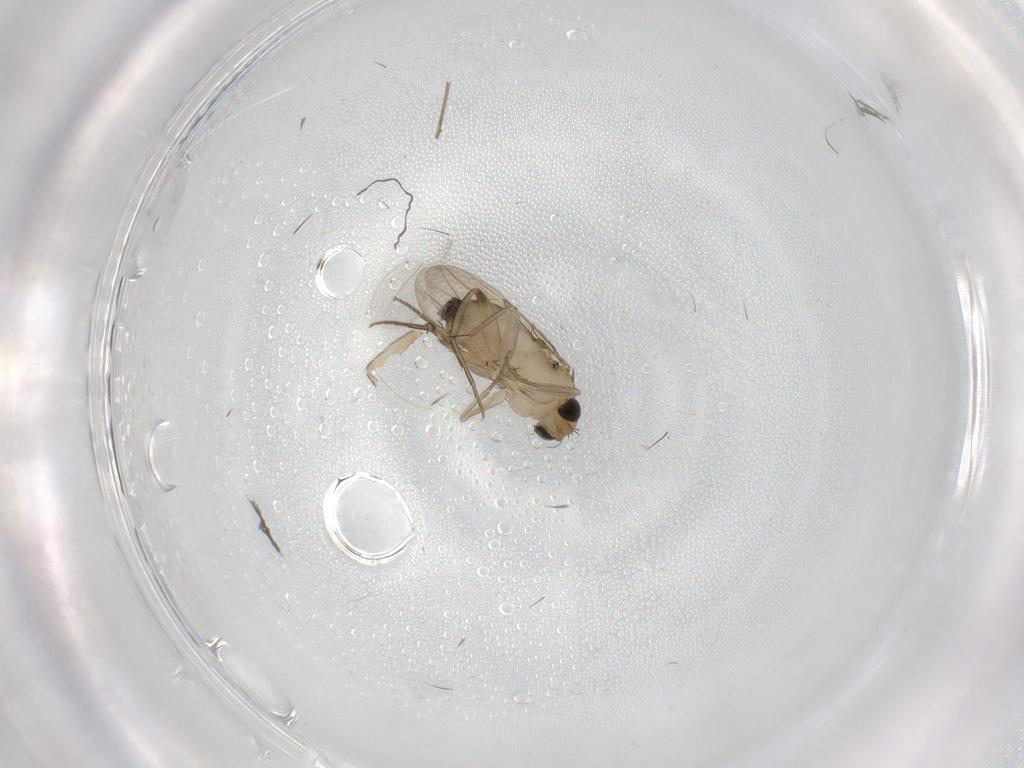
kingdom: Animalia
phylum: Arthropoda
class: Insecta
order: Diptera
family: Phoridae
